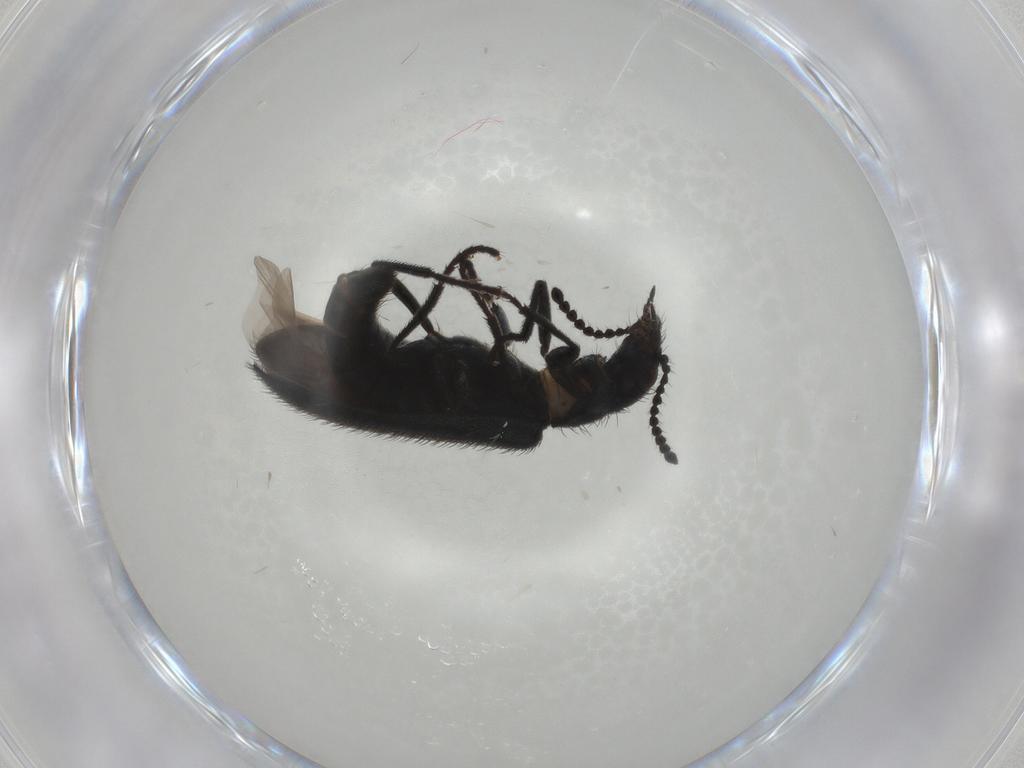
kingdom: Animalia
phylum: Arthropoda
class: Insecta
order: Coleoptera
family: Melyridae
